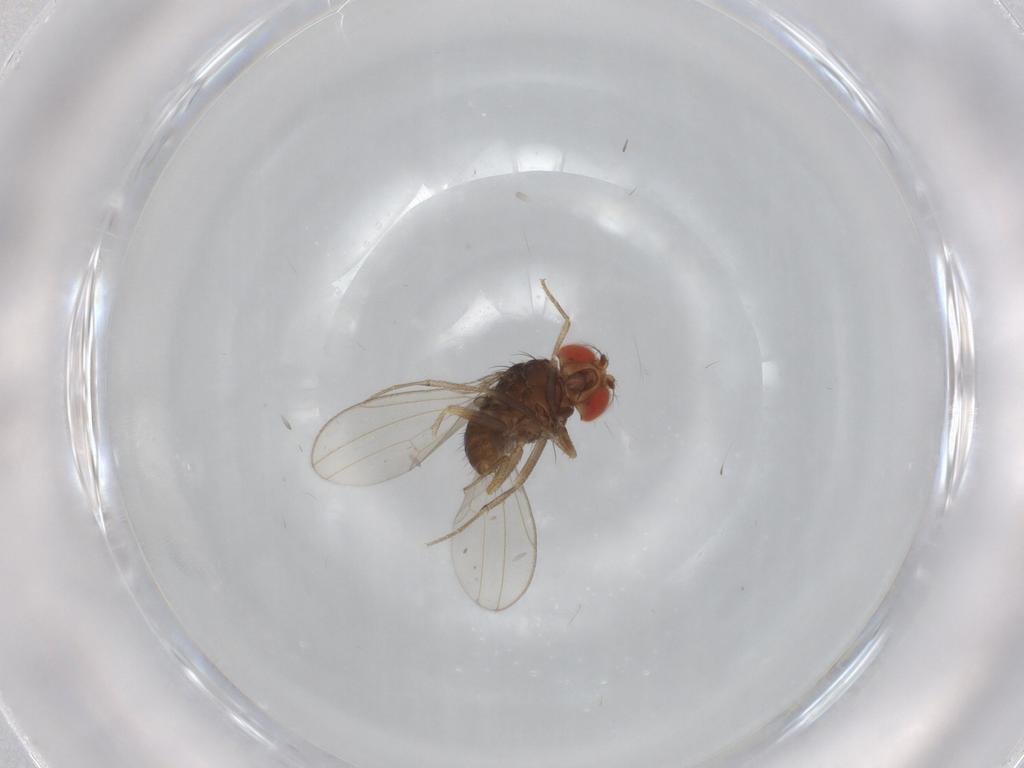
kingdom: Animalia
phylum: Arthropoda
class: Insecta
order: Diptera
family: Drosophilidae
